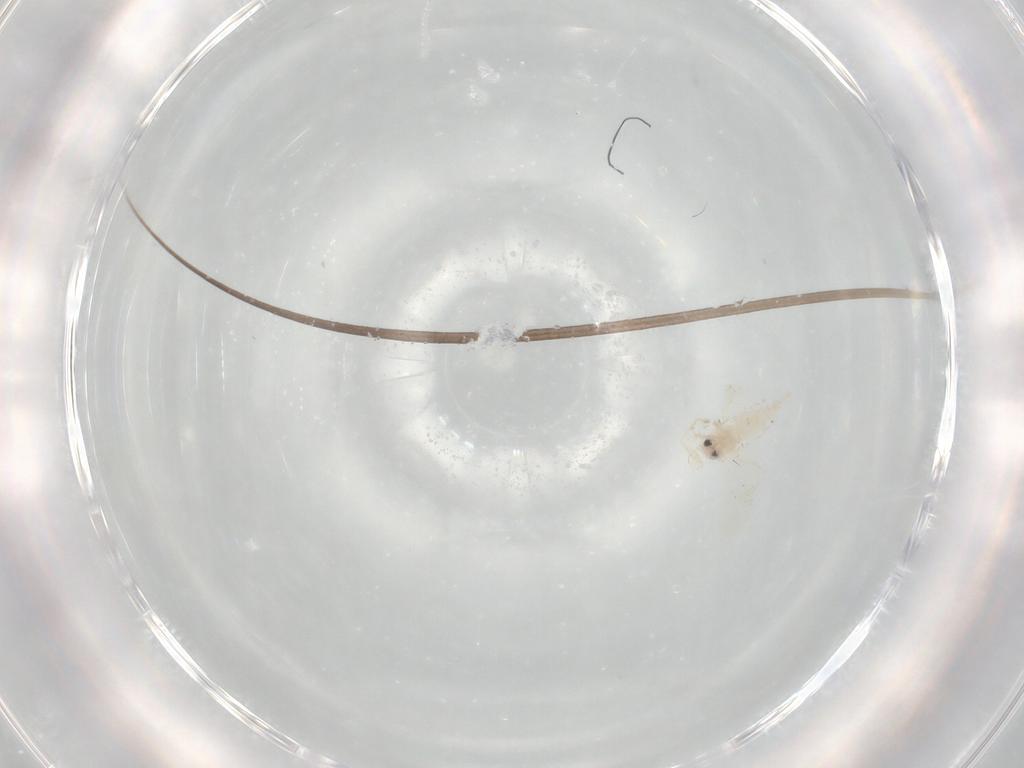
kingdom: Animalia
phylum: Arthropoda
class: Insecta
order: Hemiptera
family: Aleyrodidae
